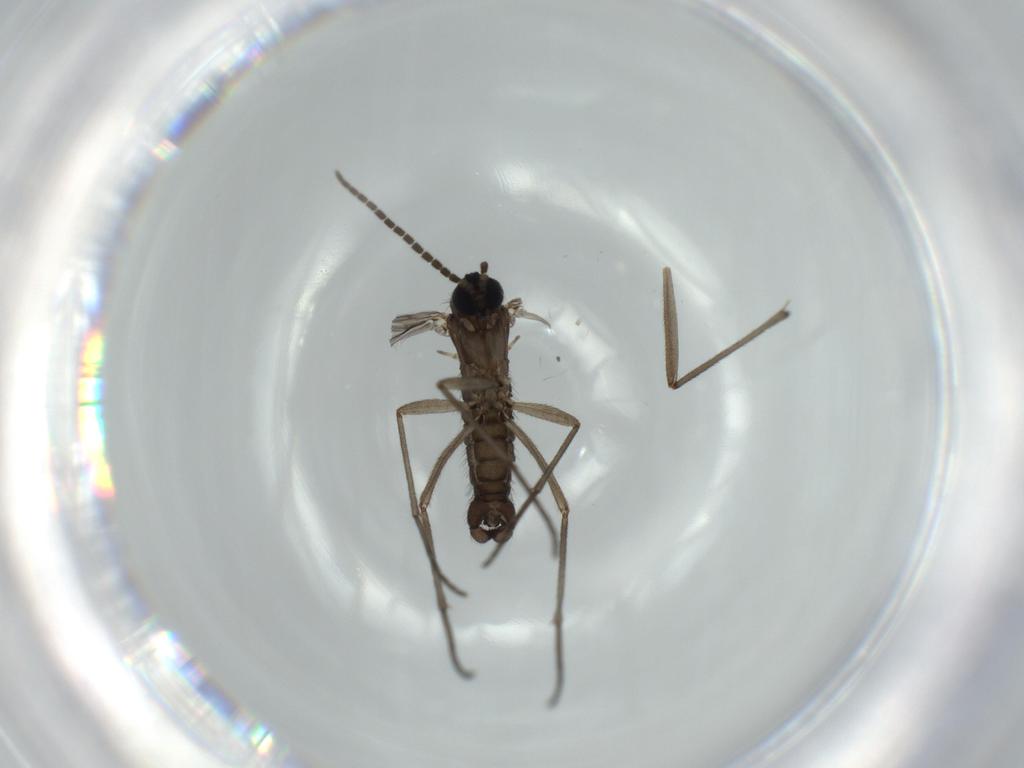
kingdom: Animalia
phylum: Arthropoda
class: Insecta
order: Diptera
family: Sciaridae
